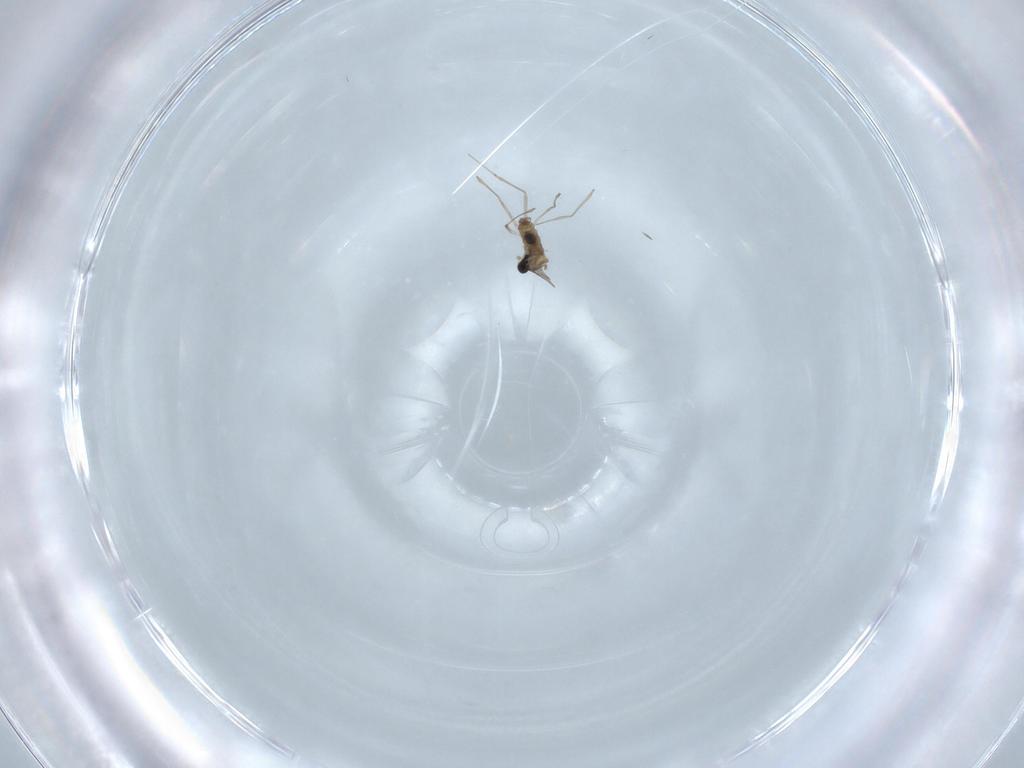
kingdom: Animalia
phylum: Arthropoda
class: Insecta
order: Diptera
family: Cecidomyiidae
